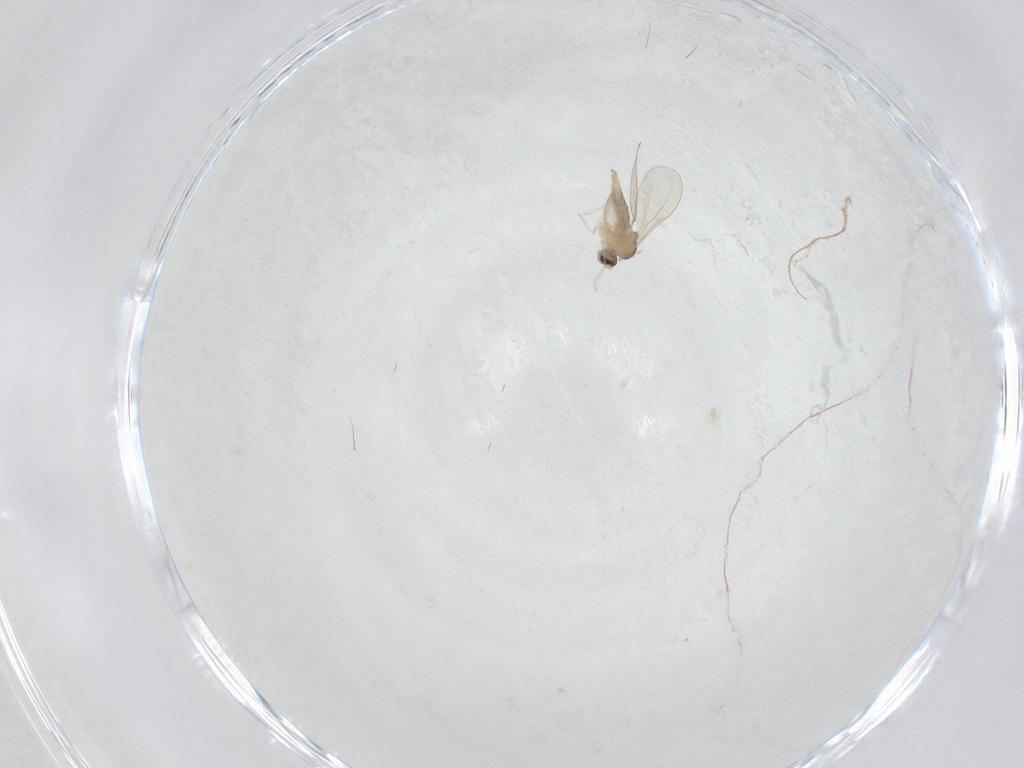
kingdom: Animalia
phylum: Arthropoda
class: Insecta
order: Diptera
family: Cecidomyiidae
